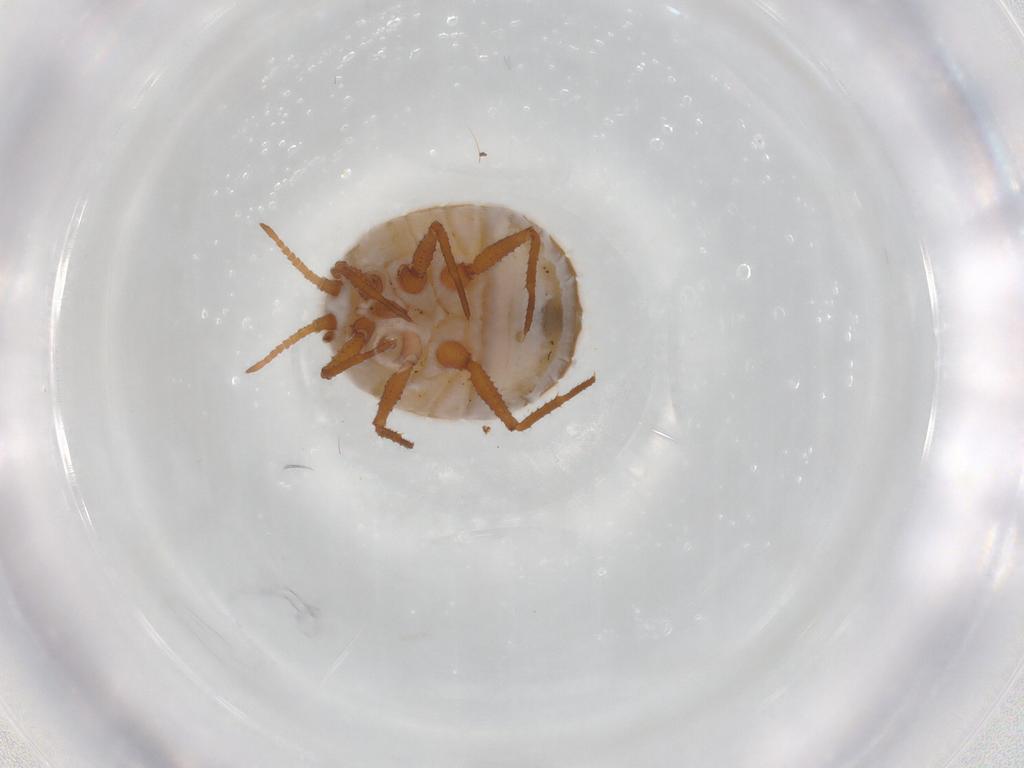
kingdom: Animalia
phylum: Arthropoda
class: Insecta
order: Hemiptera
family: Ortheziidae
